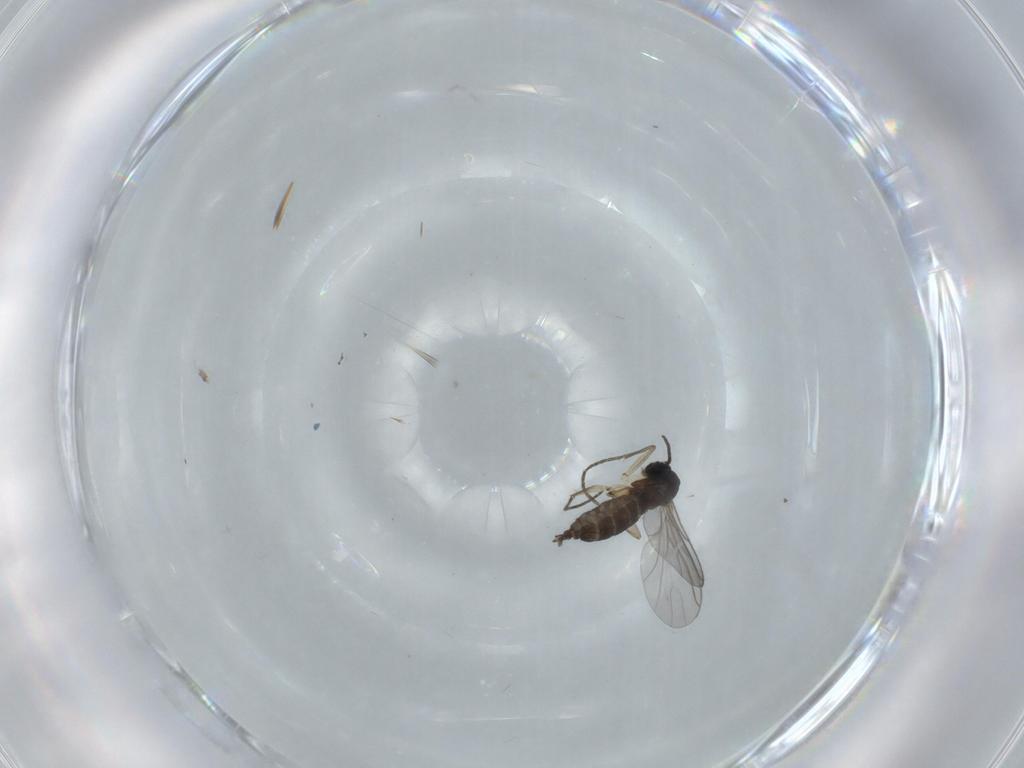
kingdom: Animalia
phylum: Arthropoda
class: Insecta
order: Diptera
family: Sciaridae
